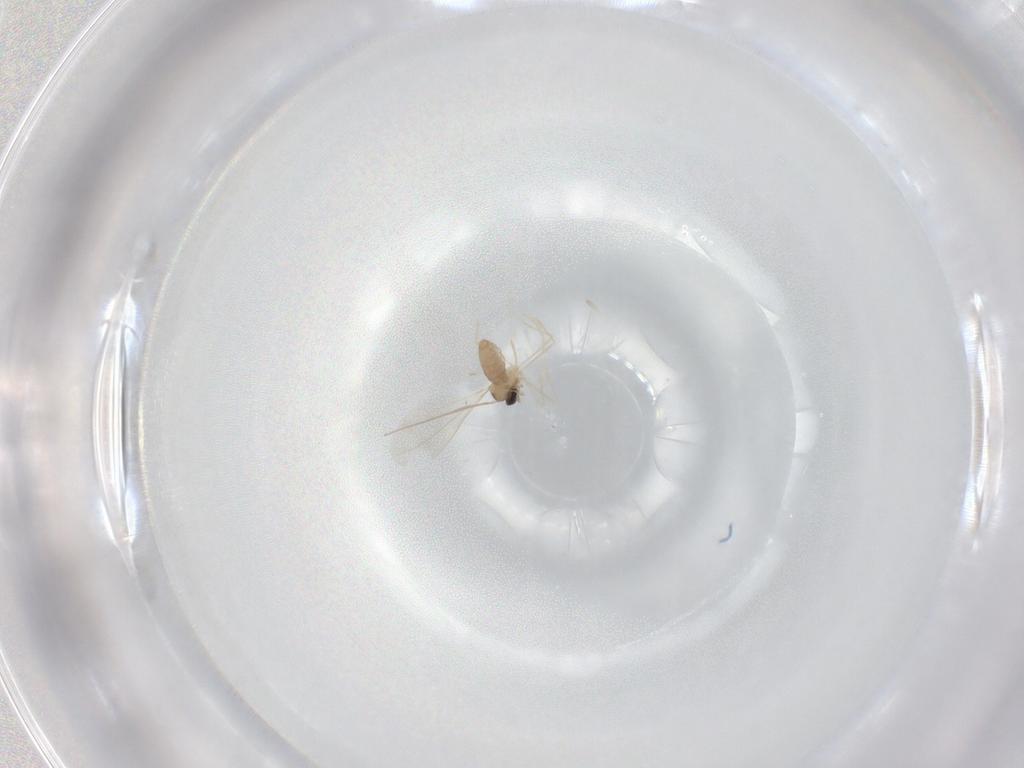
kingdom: Animalia
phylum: Arthropoda
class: Insecta
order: Diptera
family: Cecidomyiidae
